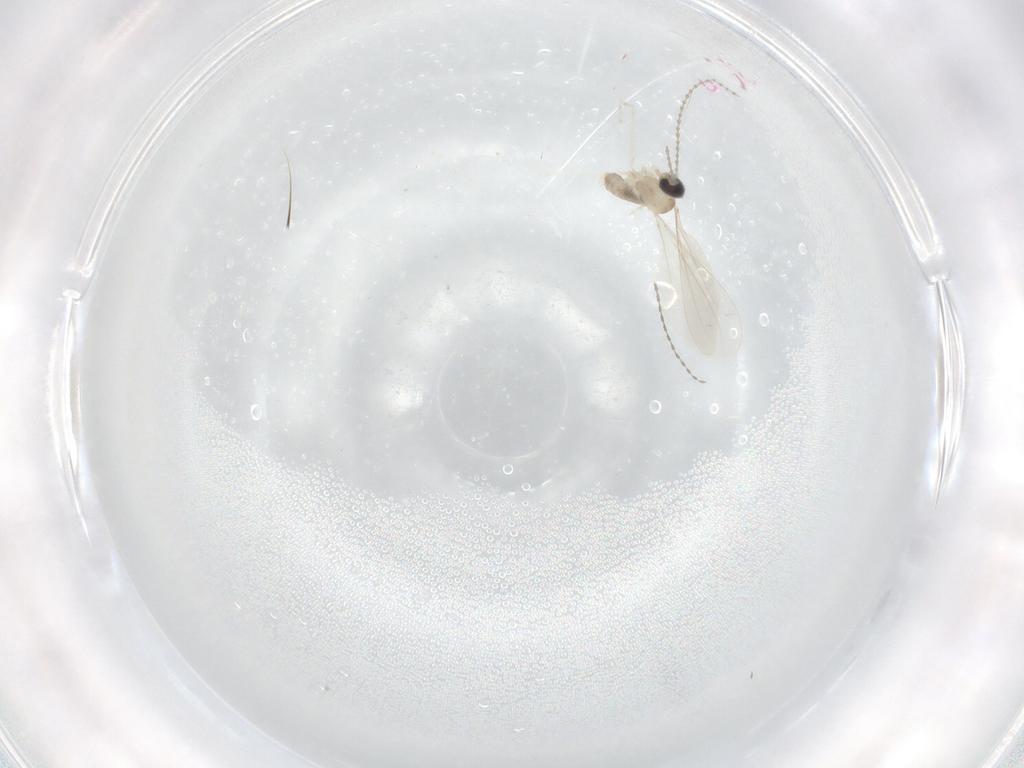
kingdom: Animalia
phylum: Arthropoda
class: Insecta
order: Diptera
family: Cecidomyiidae
